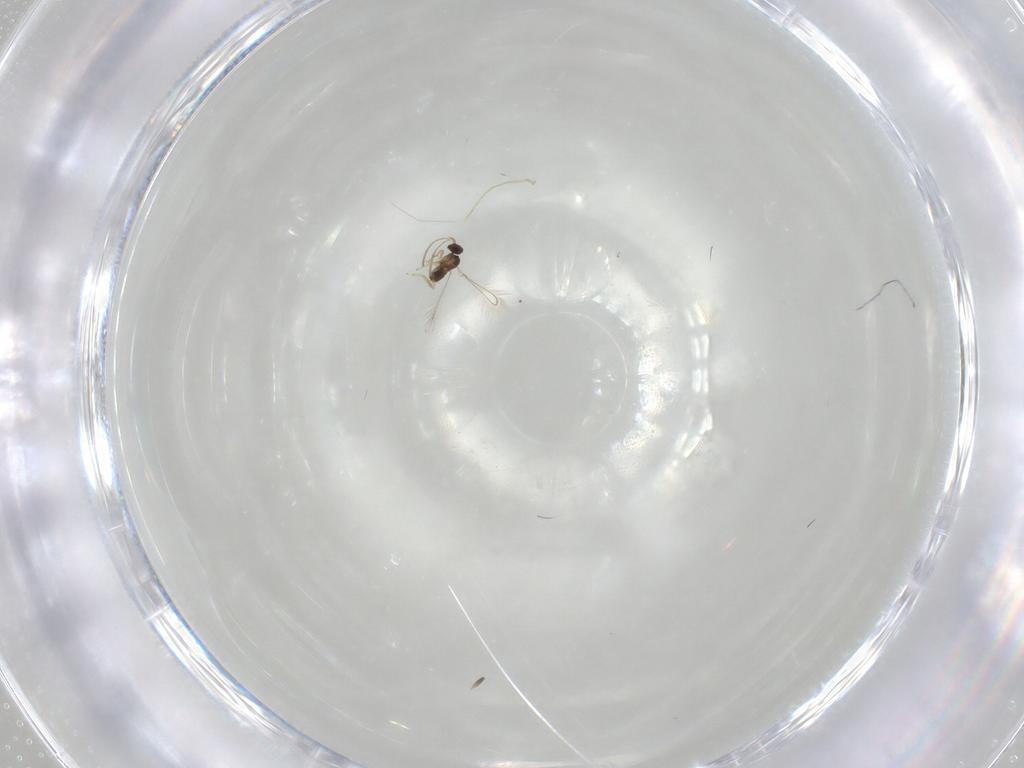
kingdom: Animalia
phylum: Arthropoda
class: Insecta
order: Hymenoptera
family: Mymaridae
